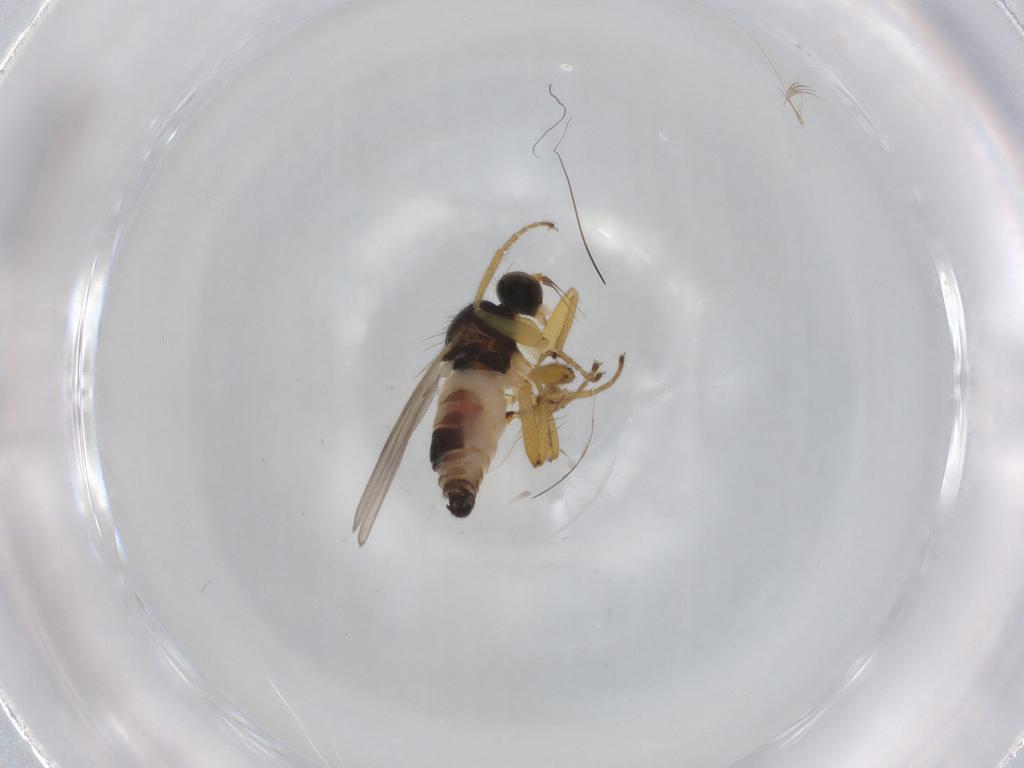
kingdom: Animalia
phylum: Arthropoda
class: Insecta
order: Diptera
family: Hybotidae
